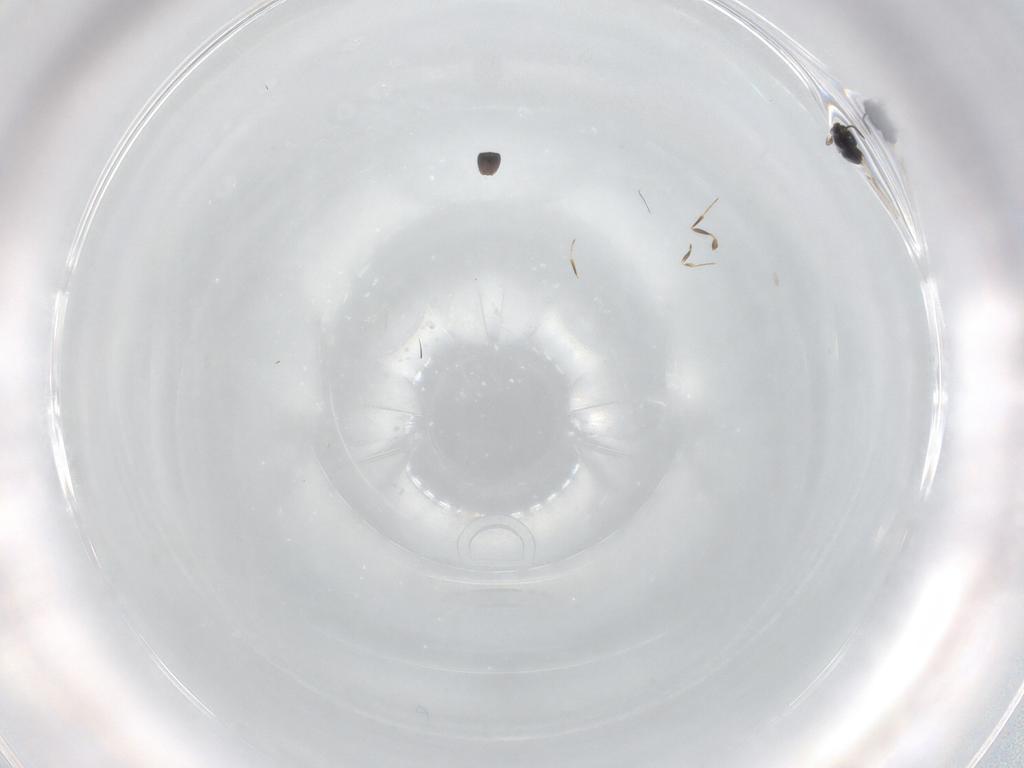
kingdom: Animalia
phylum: Arthropoda
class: Insecta
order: Hymenoptera
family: Scelionidae
